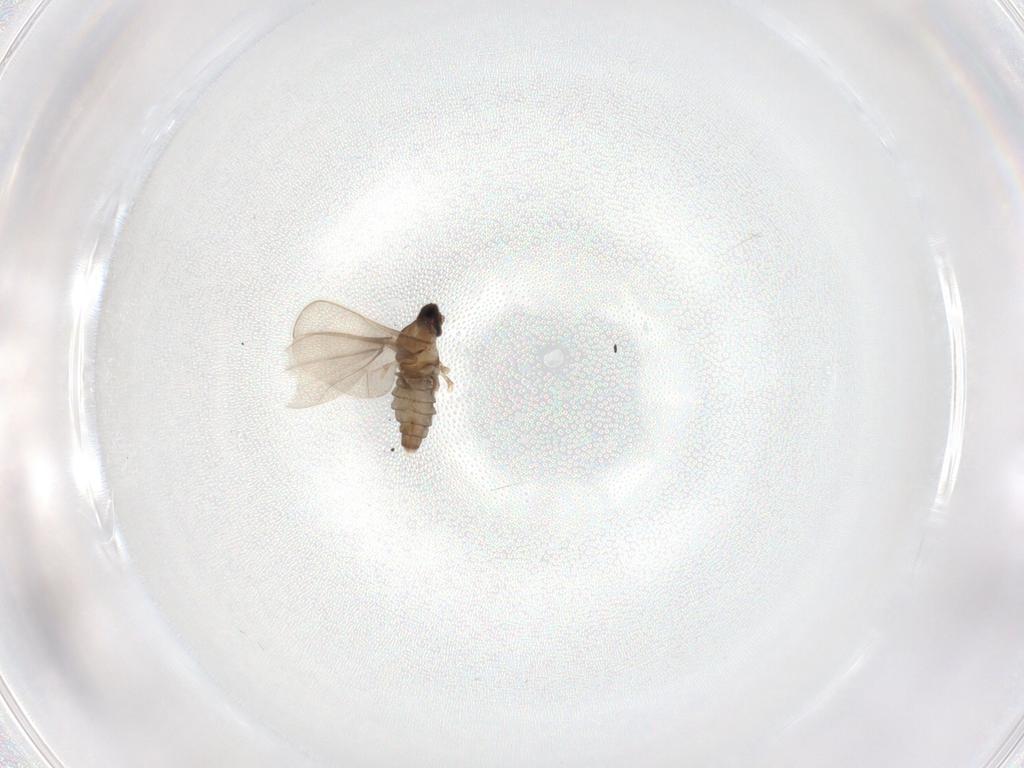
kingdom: Animalia
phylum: Arthropoda
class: Insecta
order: Diptera
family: Cecidomyiidae
